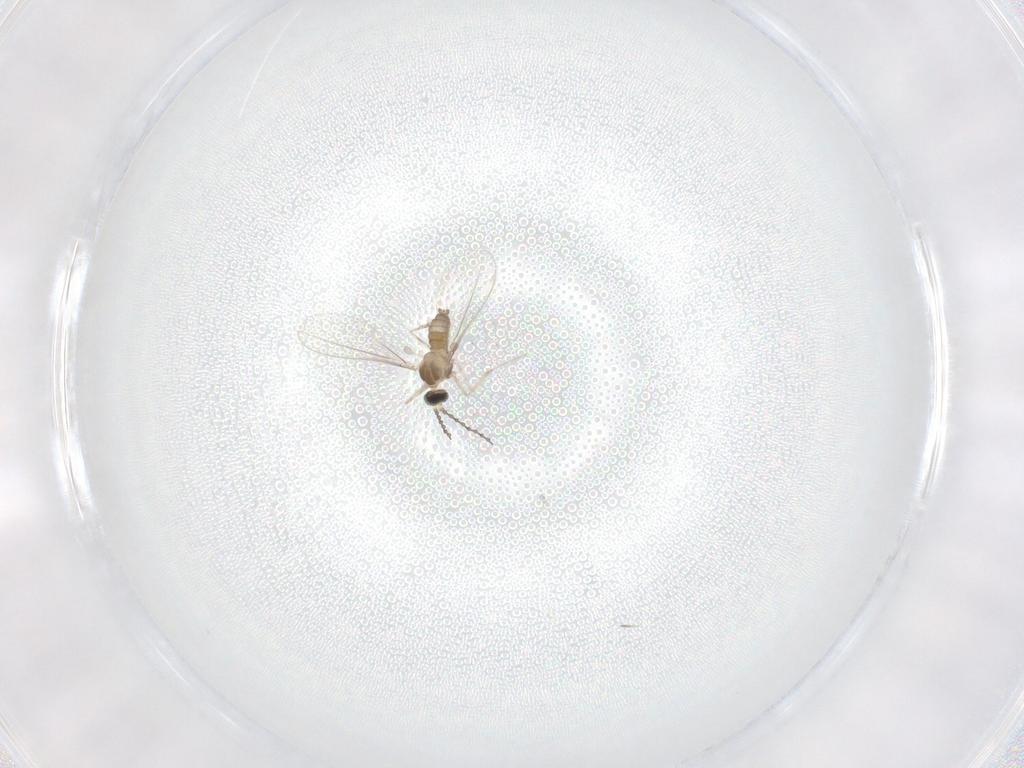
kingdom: Animalia
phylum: Arthropoda
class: Insecta
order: Diptera
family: Cecidomyiidae
